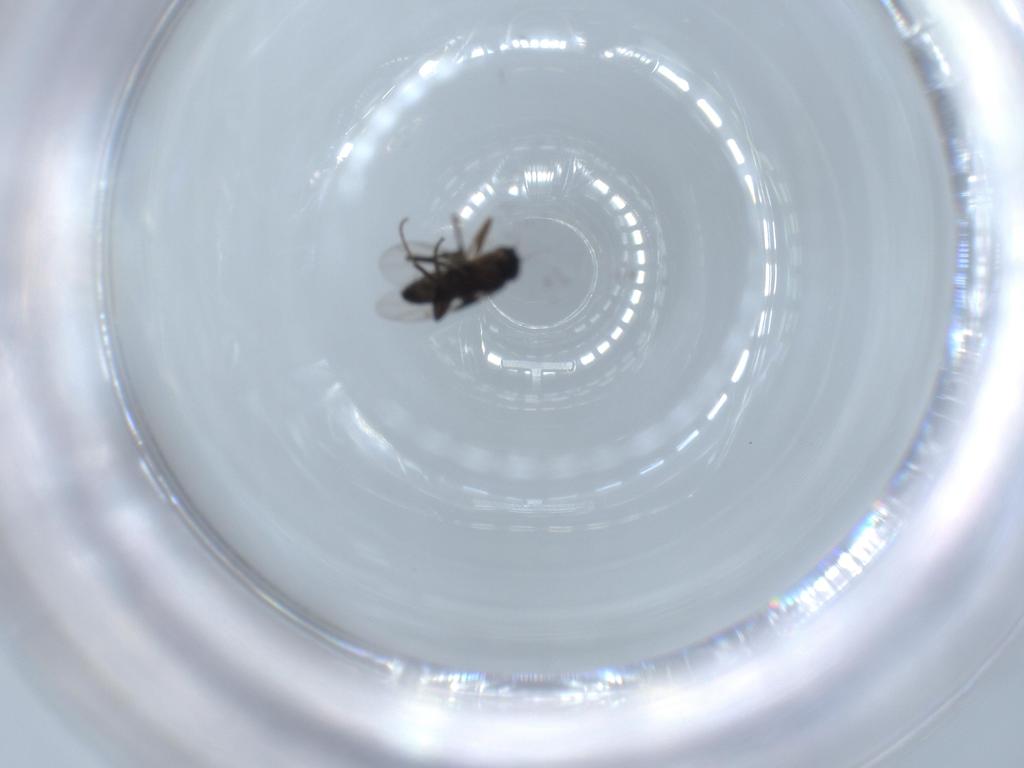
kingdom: Animalia
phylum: Arthropoda
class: Insecta
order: Diptera
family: Phoridae
